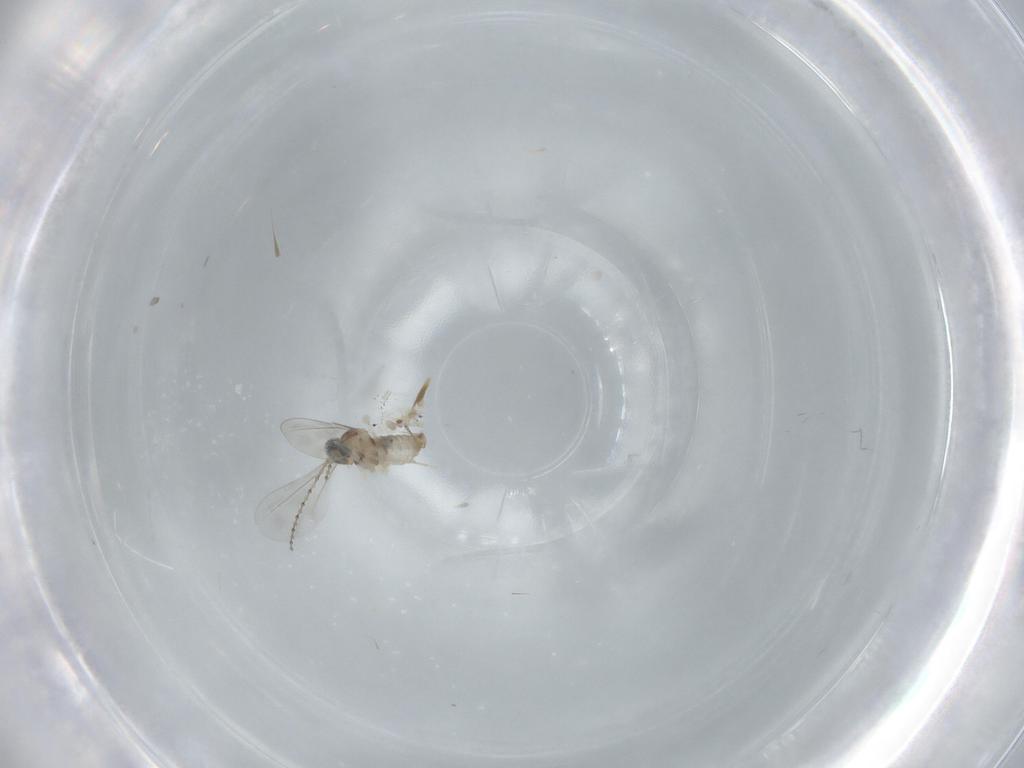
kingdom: Animalia
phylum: Arthropoda
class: Insecta
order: Diptera
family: Cecidomyiidae
